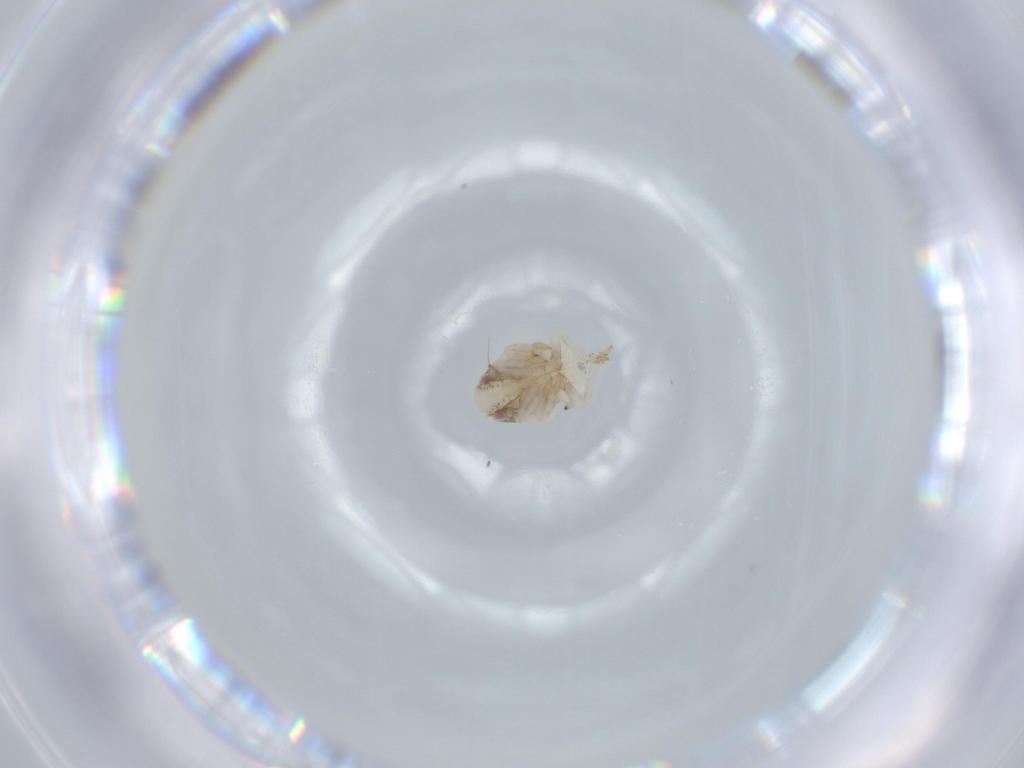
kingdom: Animalia
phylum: Arthropoda
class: Insecta
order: Hemiptera
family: Acanaloniidae
